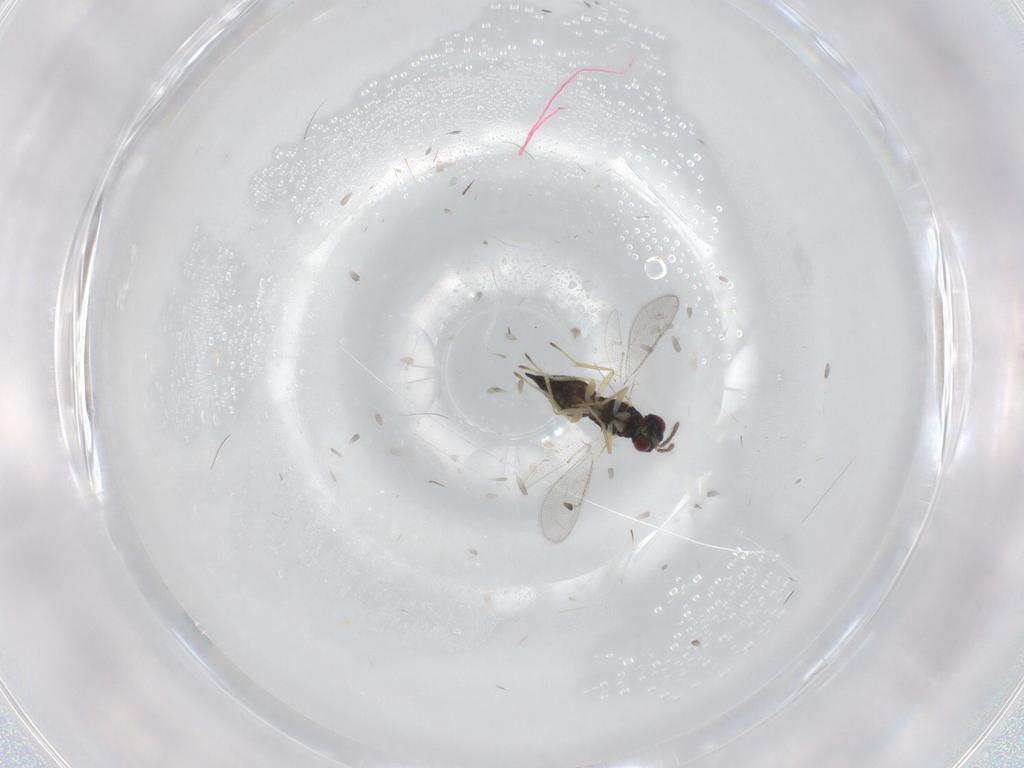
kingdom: Animalia
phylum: Arthropoda
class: Insecta
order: Hymenoptera
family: Eulophidae
